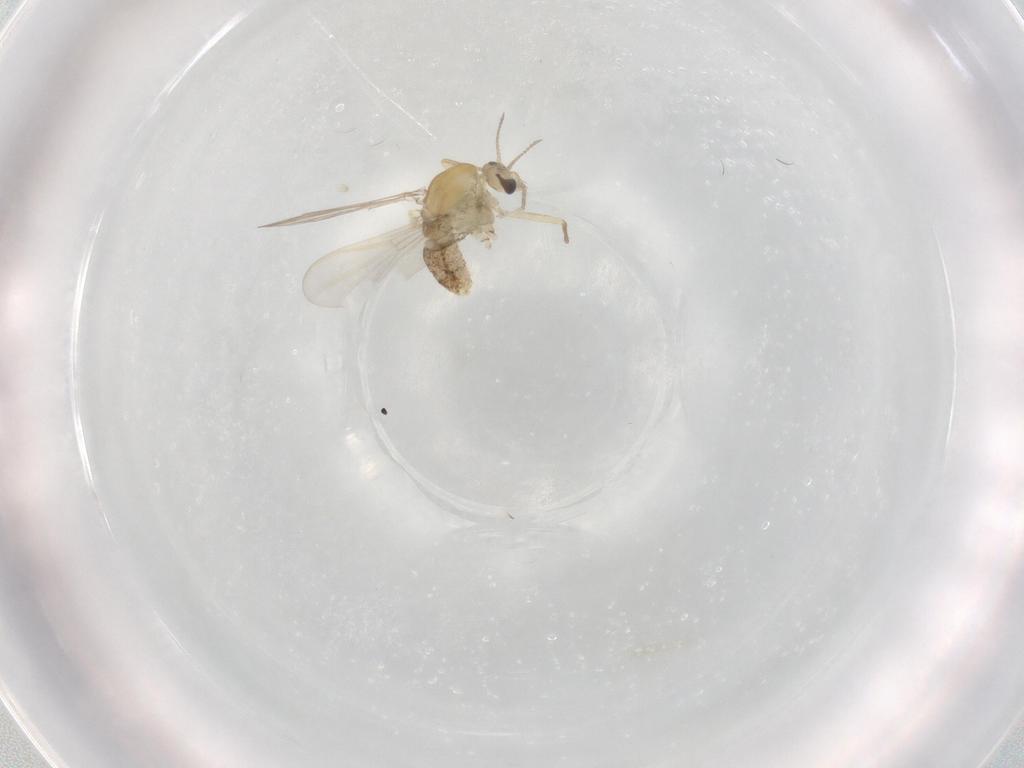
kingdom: Animalia
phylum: Arthropoda
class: Insecta
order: Diptera
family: Chironomidae
